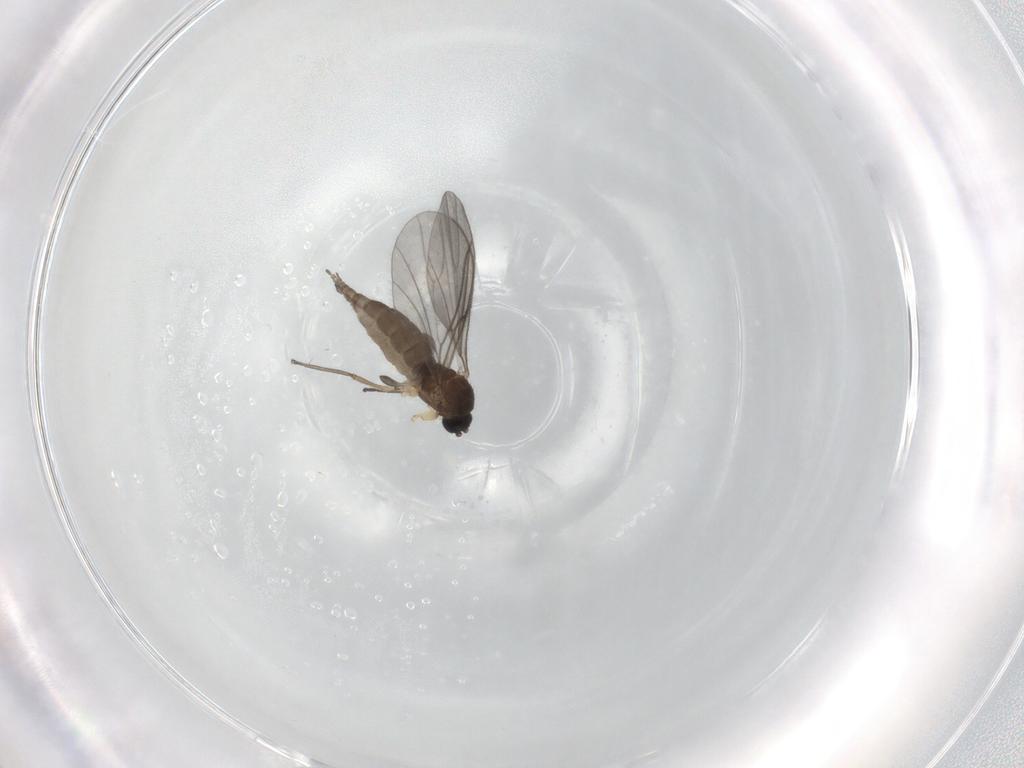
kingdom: Animalia
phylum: Arthropoda
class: Insecta
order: Diptera
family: Sciaridae
